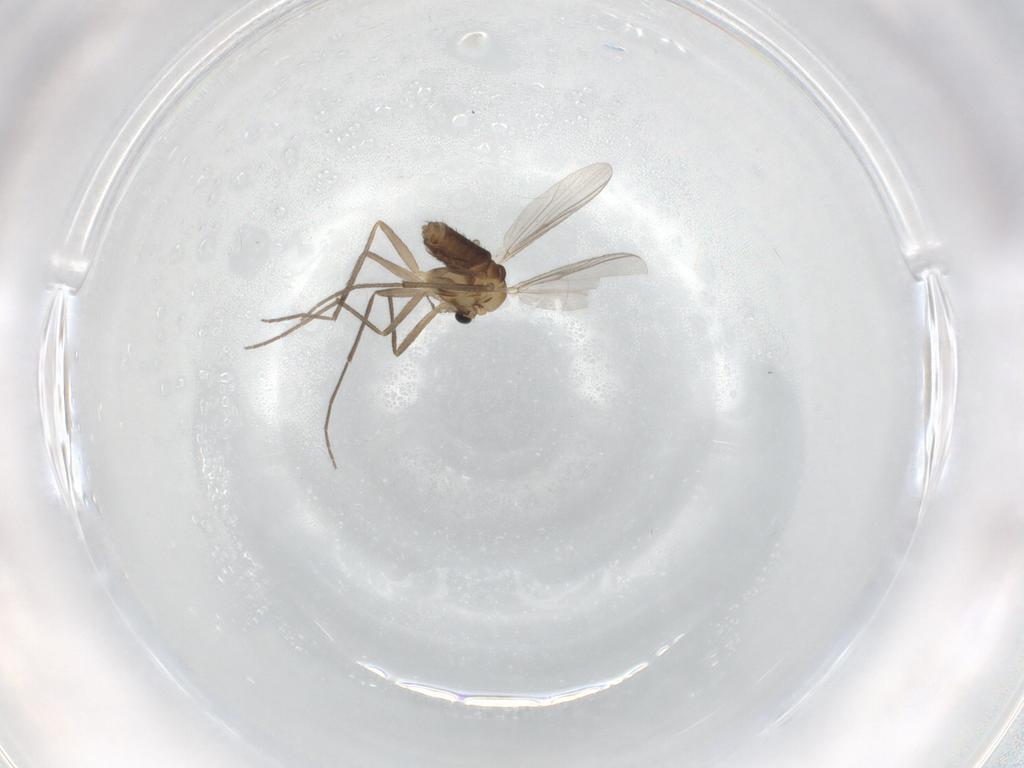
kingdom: Animalia
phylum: Arthropoda
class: Insecta
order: Diptera
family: Chironomidae
